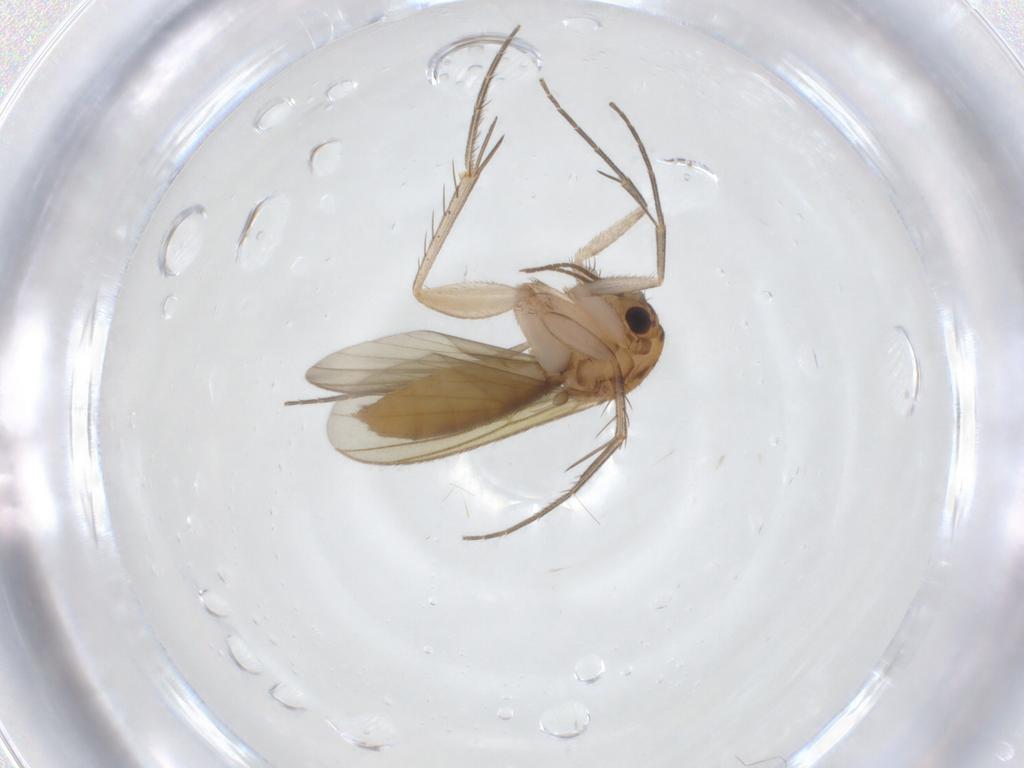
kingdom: Animalia
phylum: Arthropoda
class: Insecta
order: Diptera
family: Mycetophilidae
